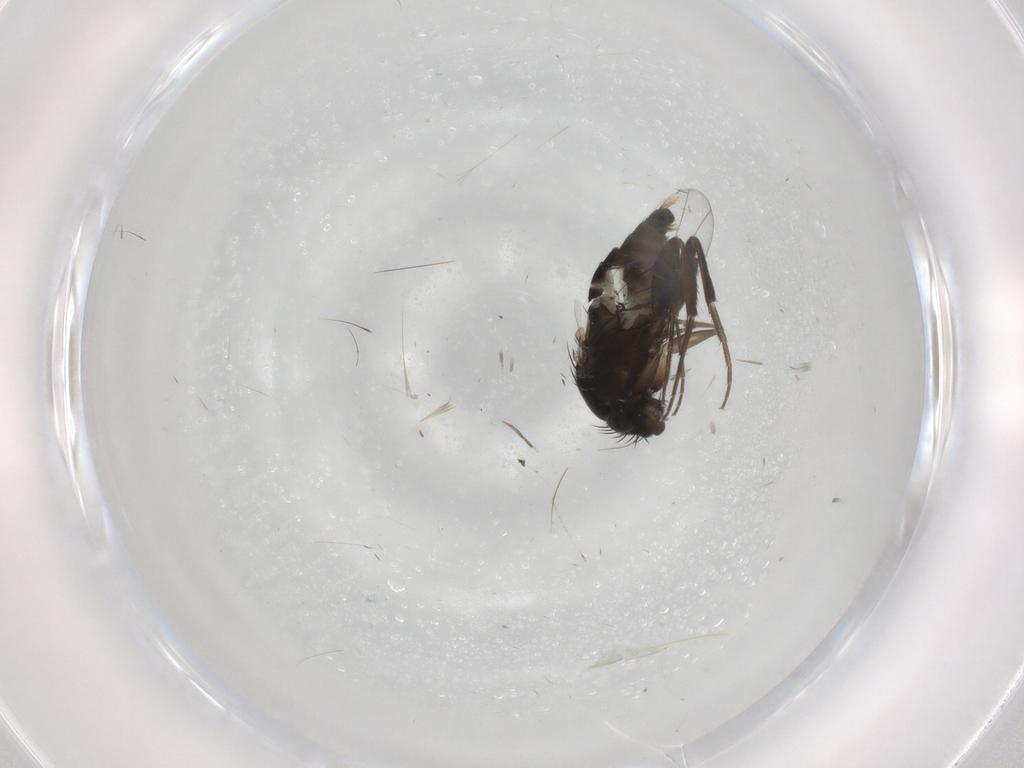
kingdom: Animalia
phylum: Arthropoda
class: Insecta
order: Diptera
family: Phoridae
